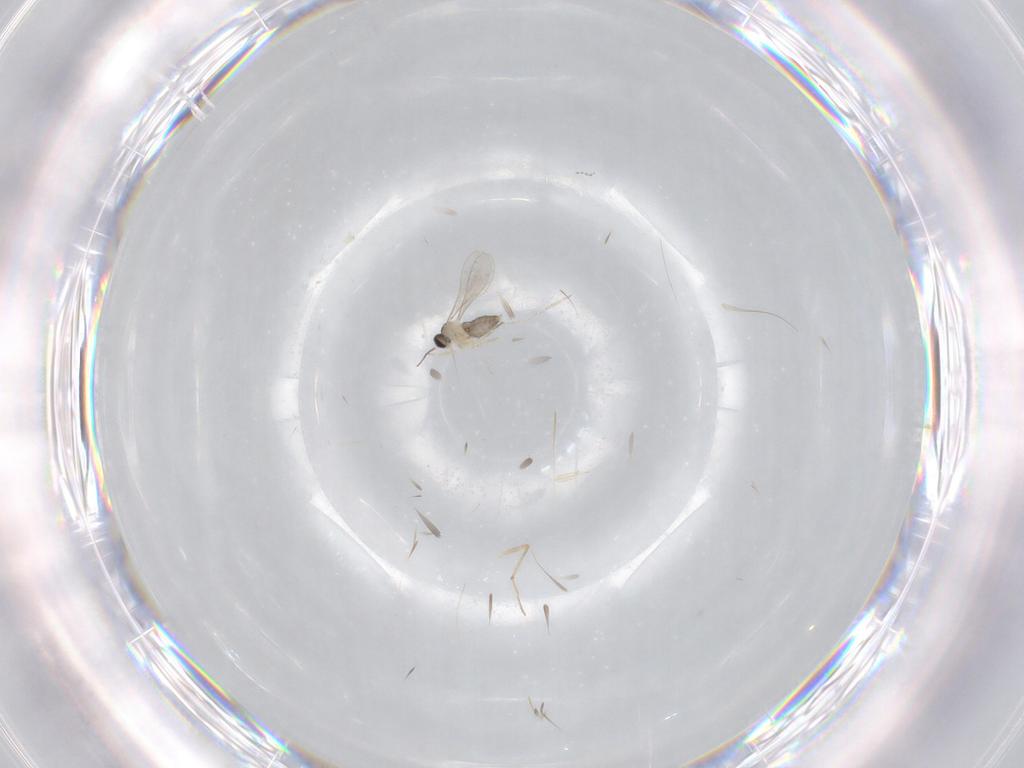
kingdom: Animalia
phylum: Arthropoda
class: Insecta
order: Diptera
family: Cecidomyiidae
